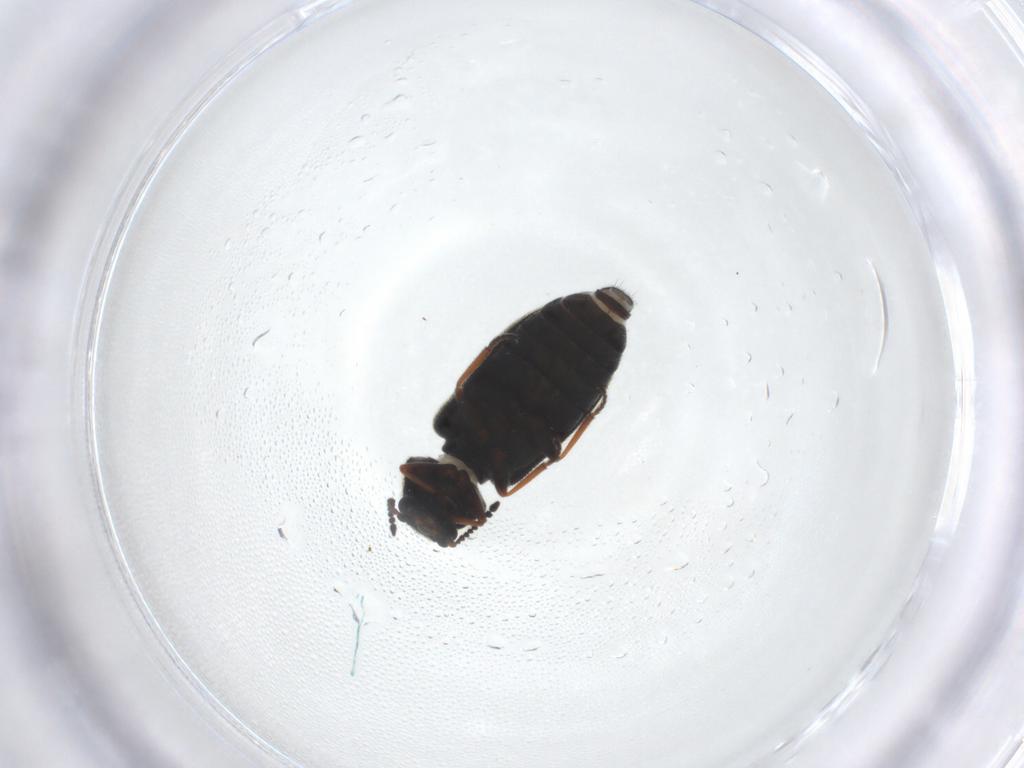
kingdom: Animalia
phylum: Arthropoda
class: Insecta
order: Coleoptera
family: Melyridae
